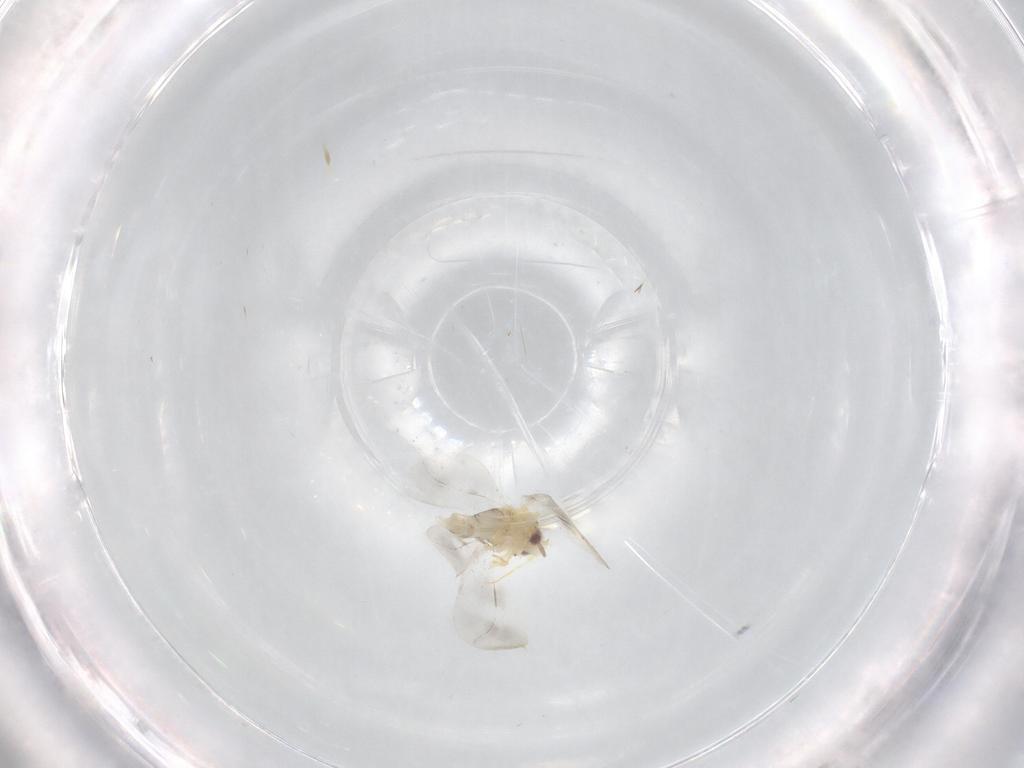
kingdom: Animalia
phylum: Arthropoda
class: Insecta
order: Hemiptera
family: Aleyrodidae
